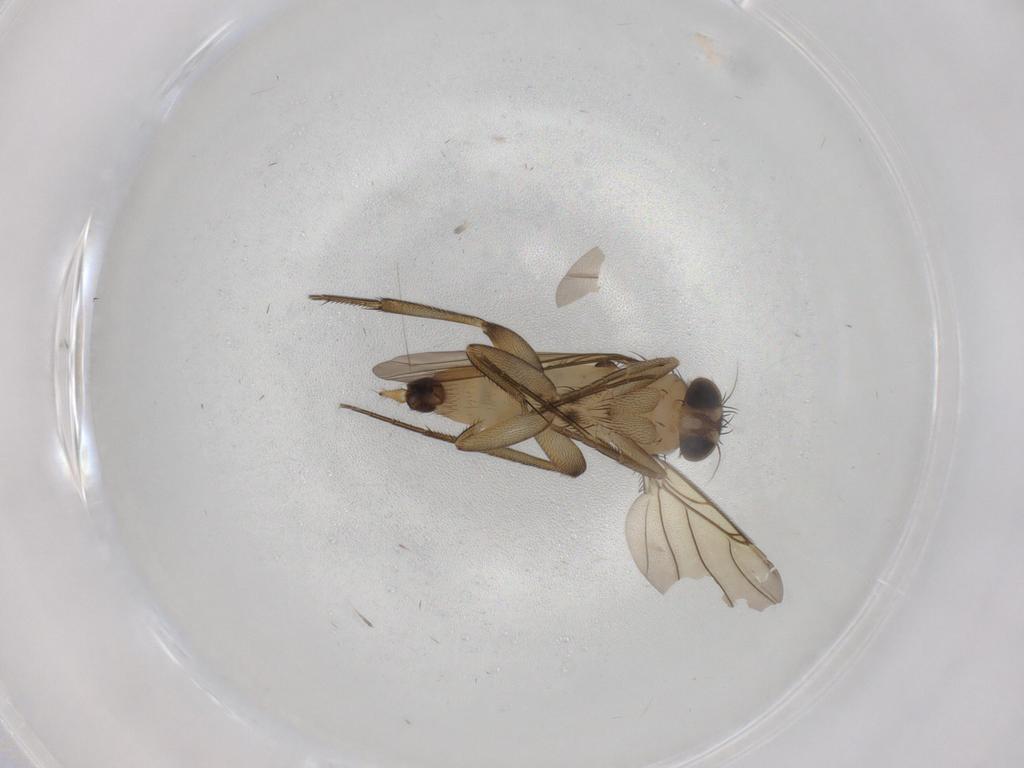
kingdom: Animalia
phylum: Arthropoda
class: Insecta
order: Diptera
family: Phoridae
